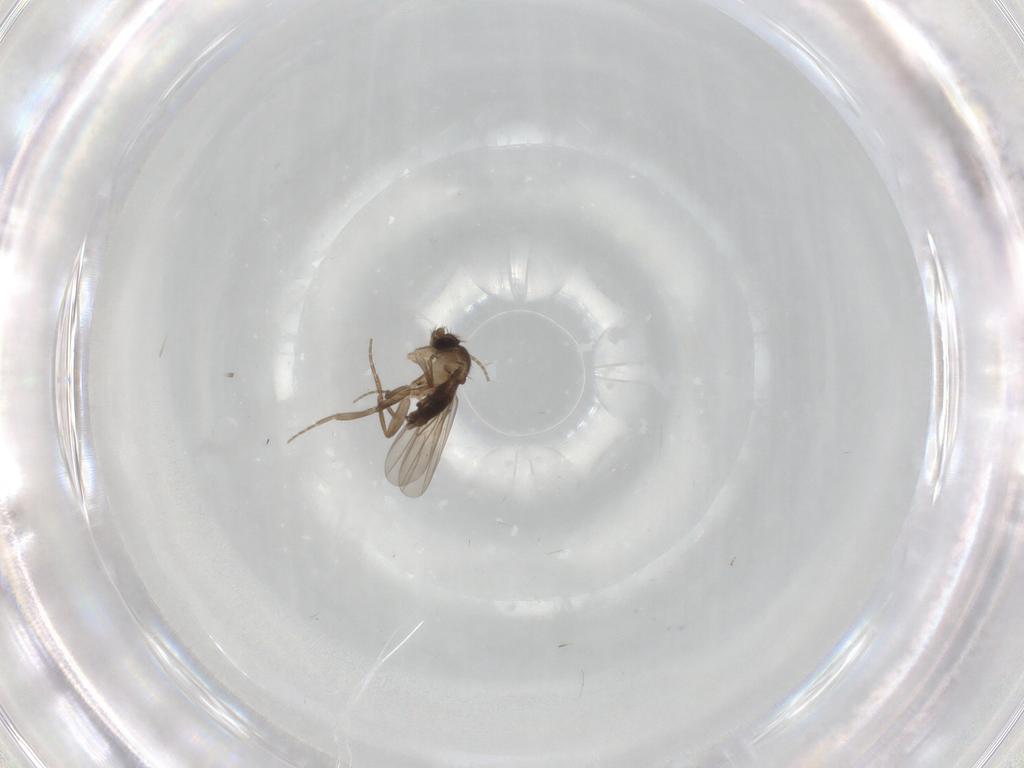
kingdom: Animalia
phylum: Arthropoda
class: Insecta
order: Diptera
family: Phoridae
